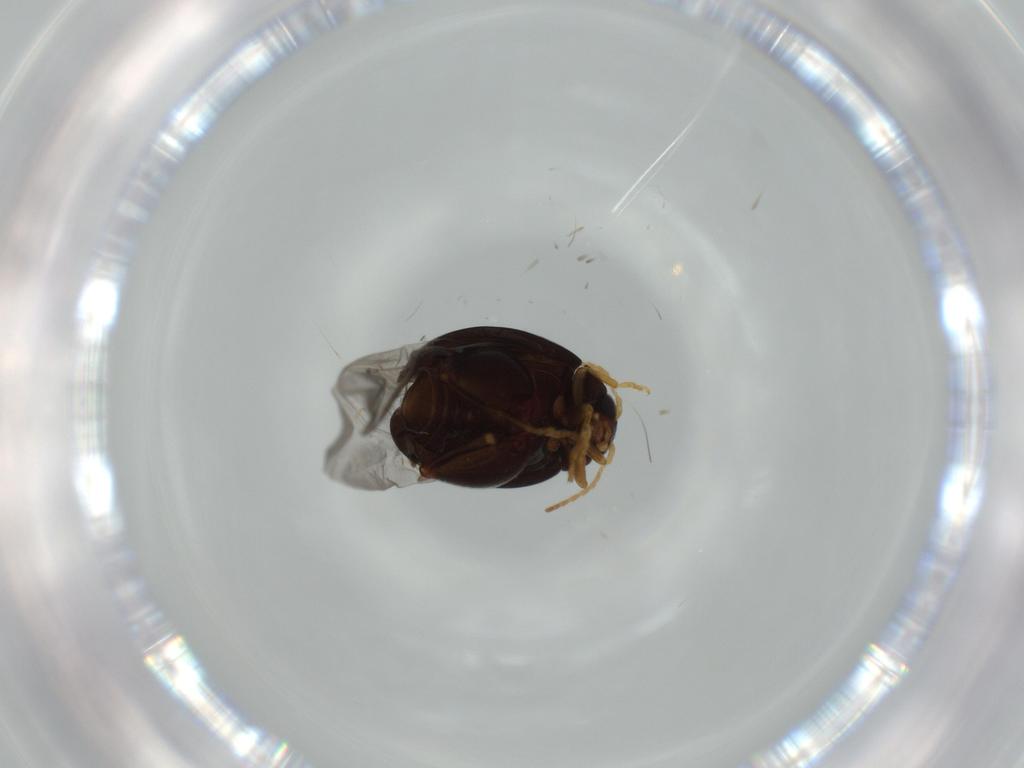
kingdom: Animalia
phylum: Arthropoda
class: Insecta
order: Coleoptera
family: Chrysomelidae
